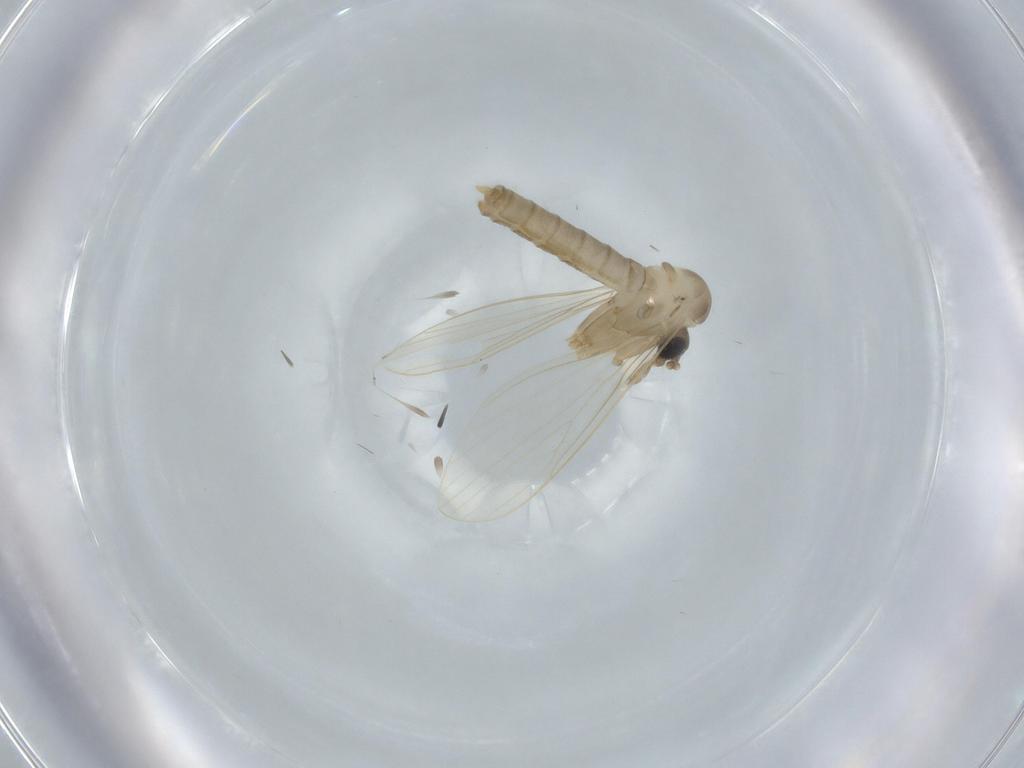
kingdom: Animalia
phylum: Arthropoda
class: Insecta
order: Diptera
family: Psychodidae
